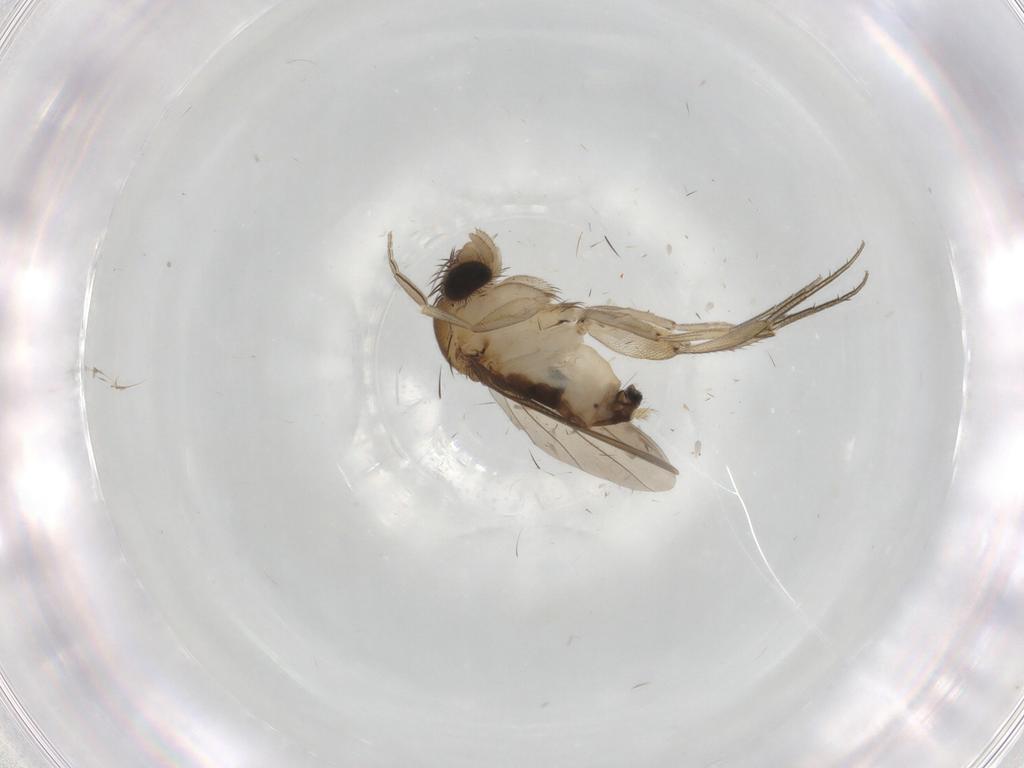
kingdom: Animalia
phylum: Arthropoda
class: Insecta
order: Diptera
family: Phoridae
